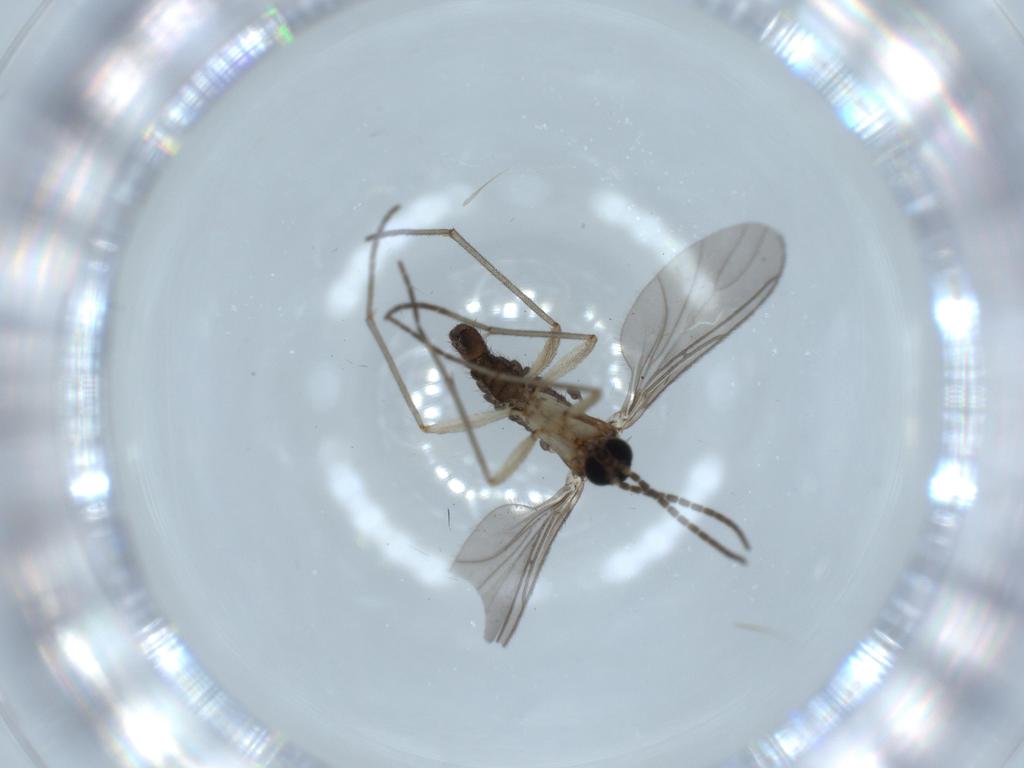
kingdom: Animalia
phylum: Arthropoda
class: Insecta
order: Diptera
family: Sciaridae
